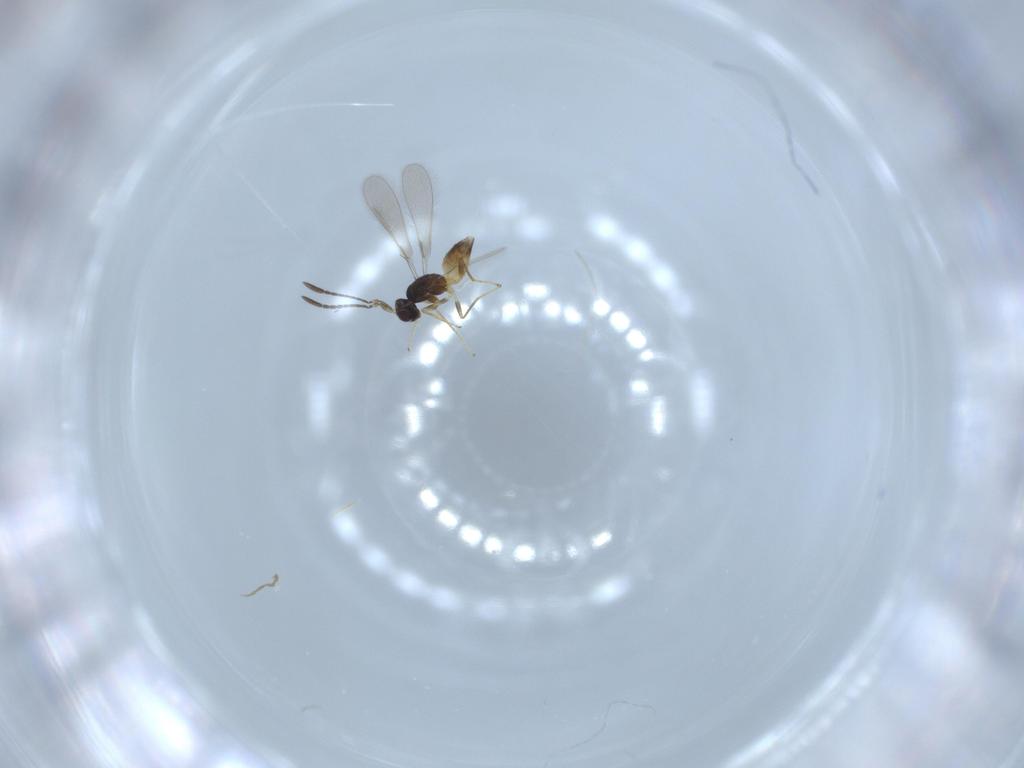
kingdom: Animalia
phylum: Arthropoda
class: Insecta
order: Hymenoptera
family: Mymaridae
